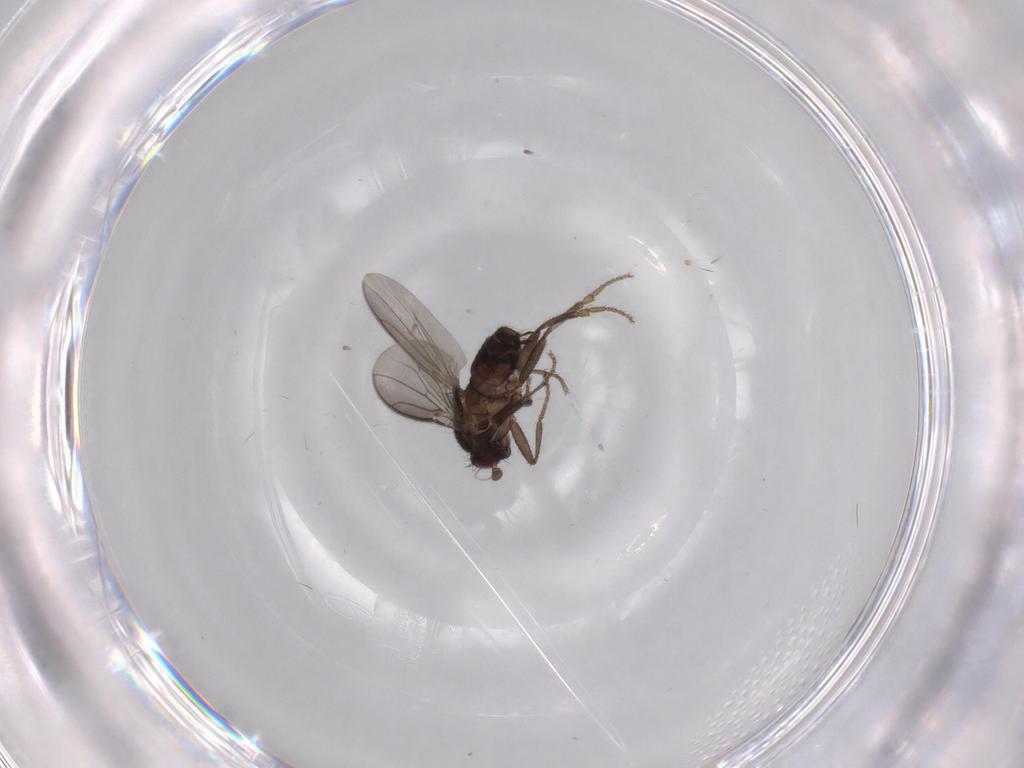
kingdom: Animalia
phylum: Arthropoda
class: Insecta
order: Diptera
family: Sphaeroceridae
